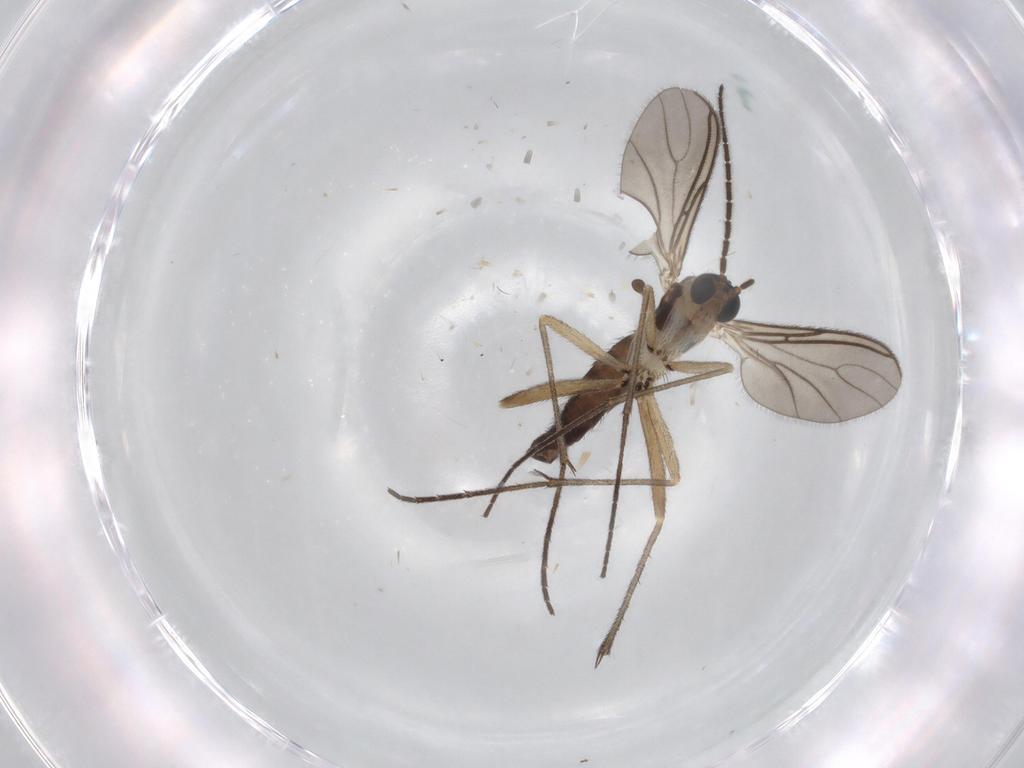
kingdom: Animalia
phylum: Arthropoda
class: Insecta
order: Diptera
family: Sciaridae
